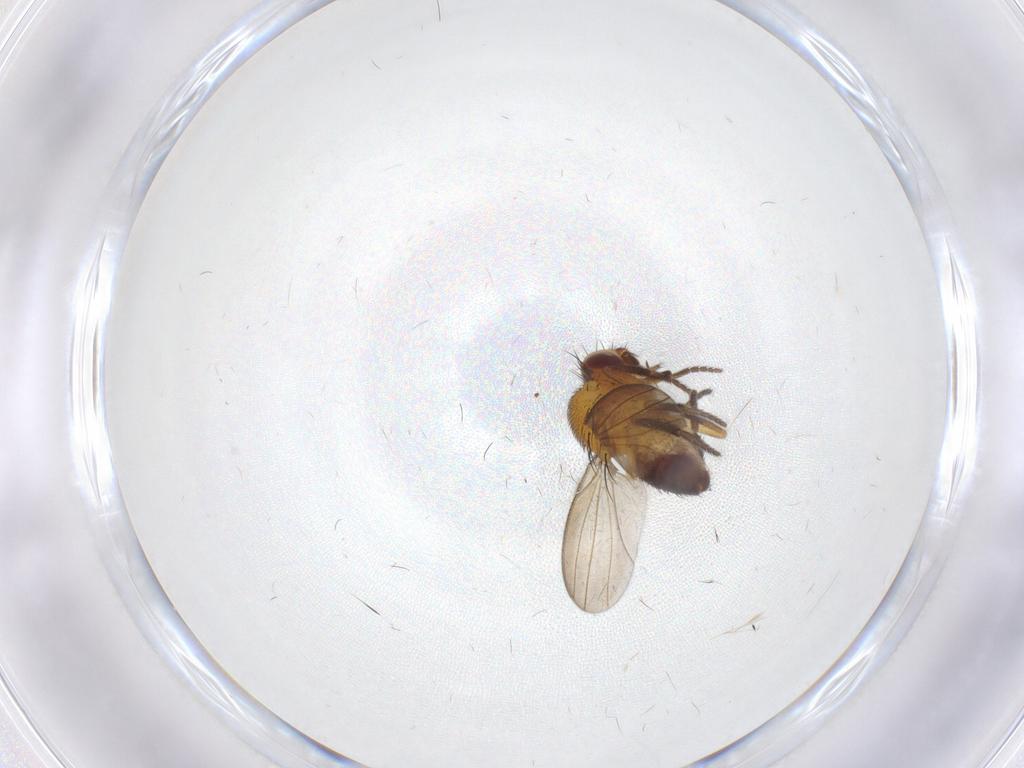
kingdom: Animalia
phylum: Arthropoda
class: Insecta
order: Diptera
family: Milichiidae
